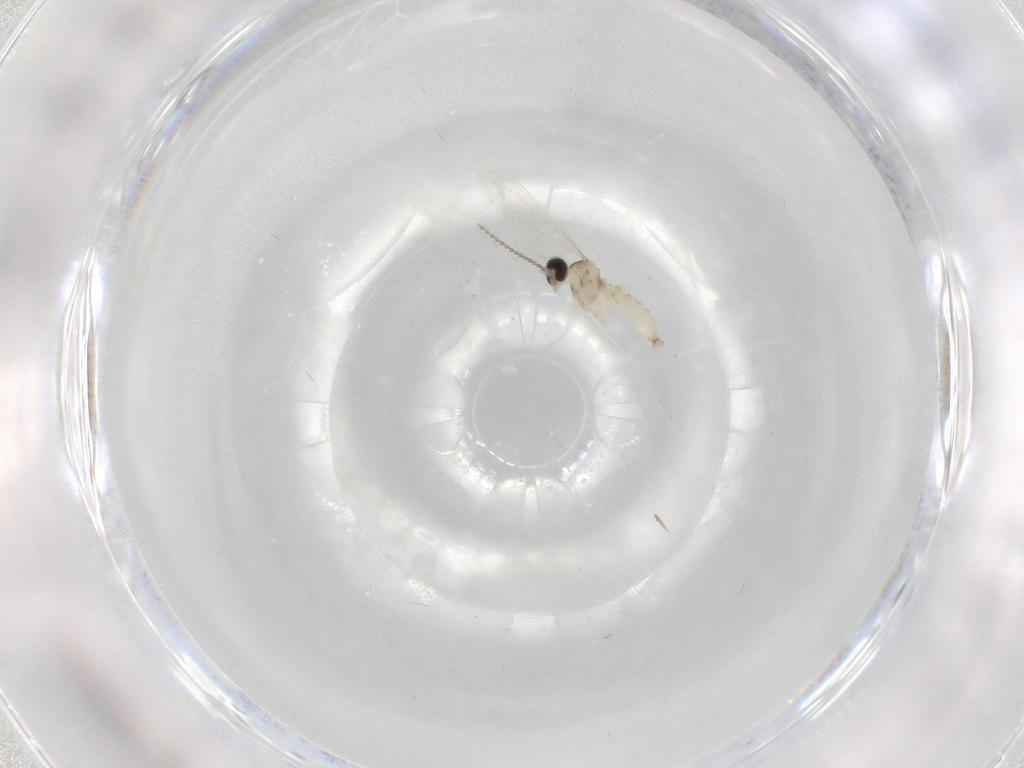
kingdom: Animalia
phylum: Arthropoda
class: Insecta
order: Diptera
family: Cecidomyiidae
